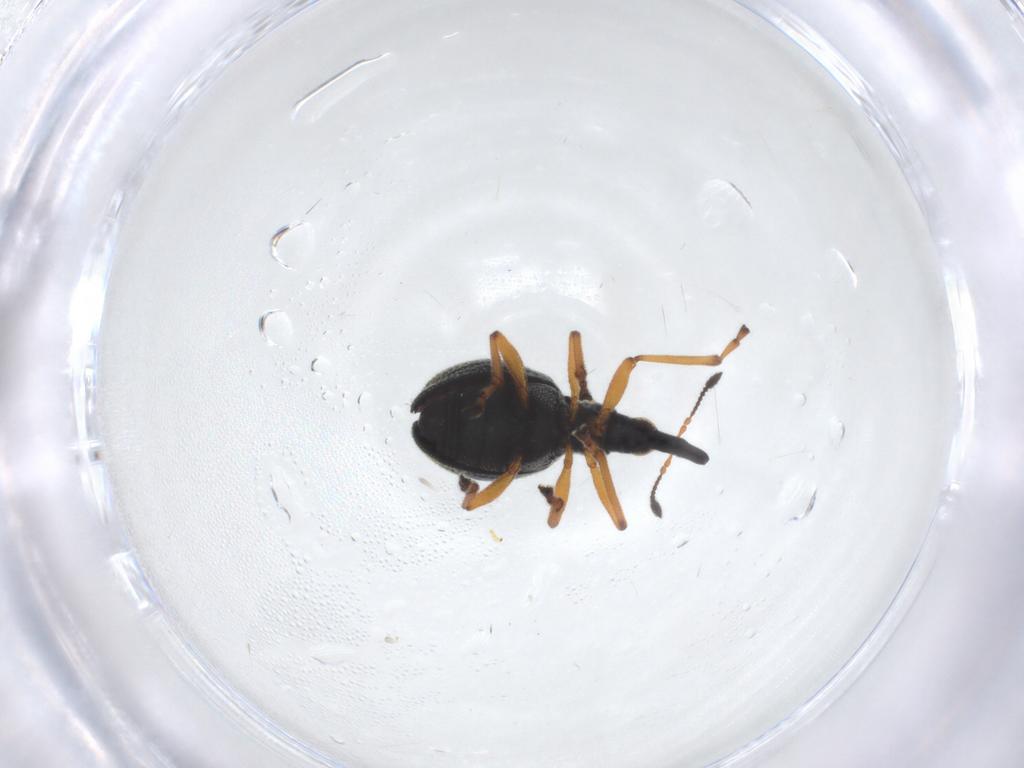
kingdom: Animalia
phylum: Arthropoda
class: Insecta
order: Coleoptera
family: Brentidae
